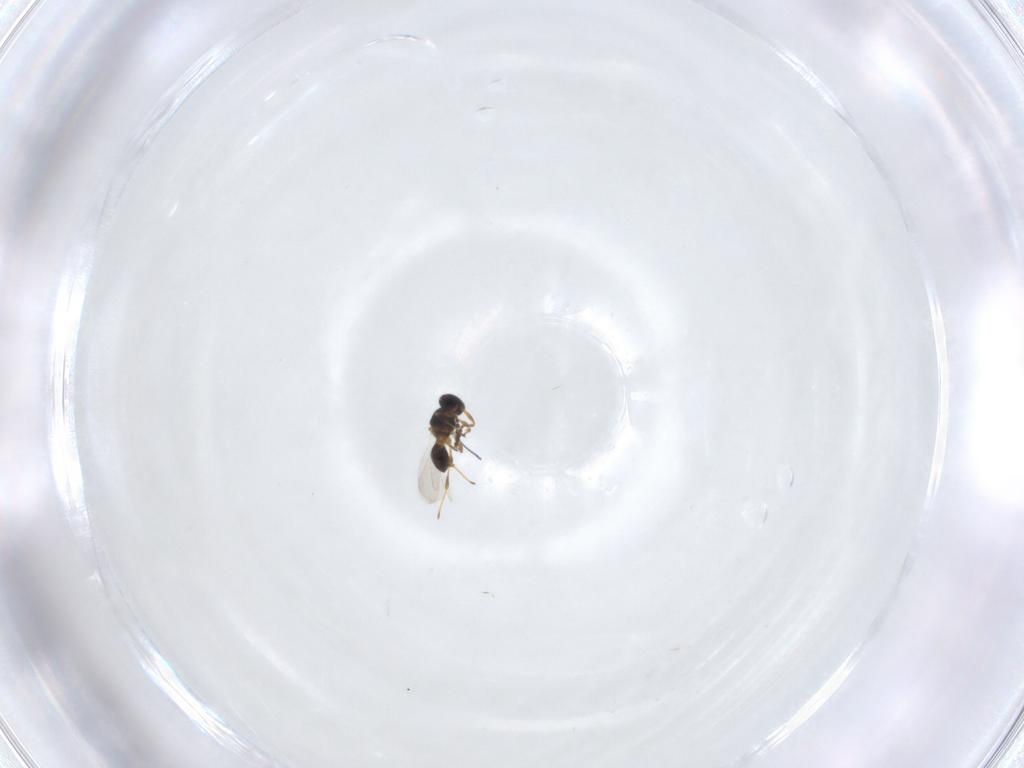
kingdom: Animalia
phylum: Arthropoda
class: Insecta
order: Hymenoptera
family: Platygastridae
